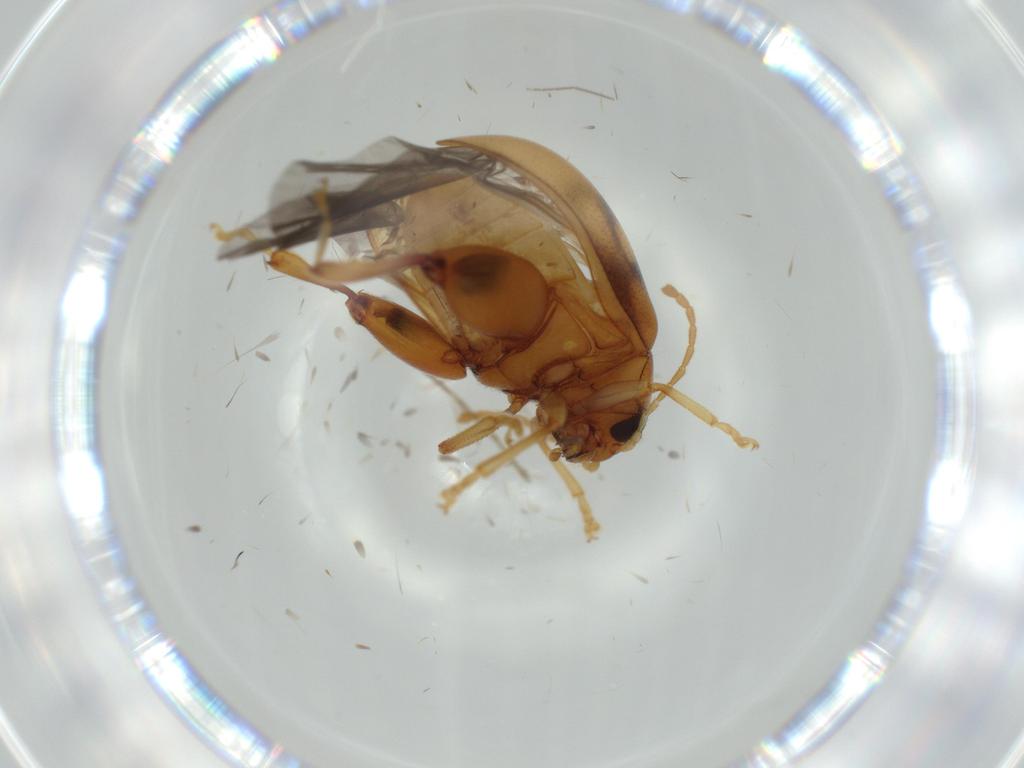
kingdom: Animalia
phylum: Arthropoda
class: Insecta
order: Coleoptera
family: Chrysomelidae
